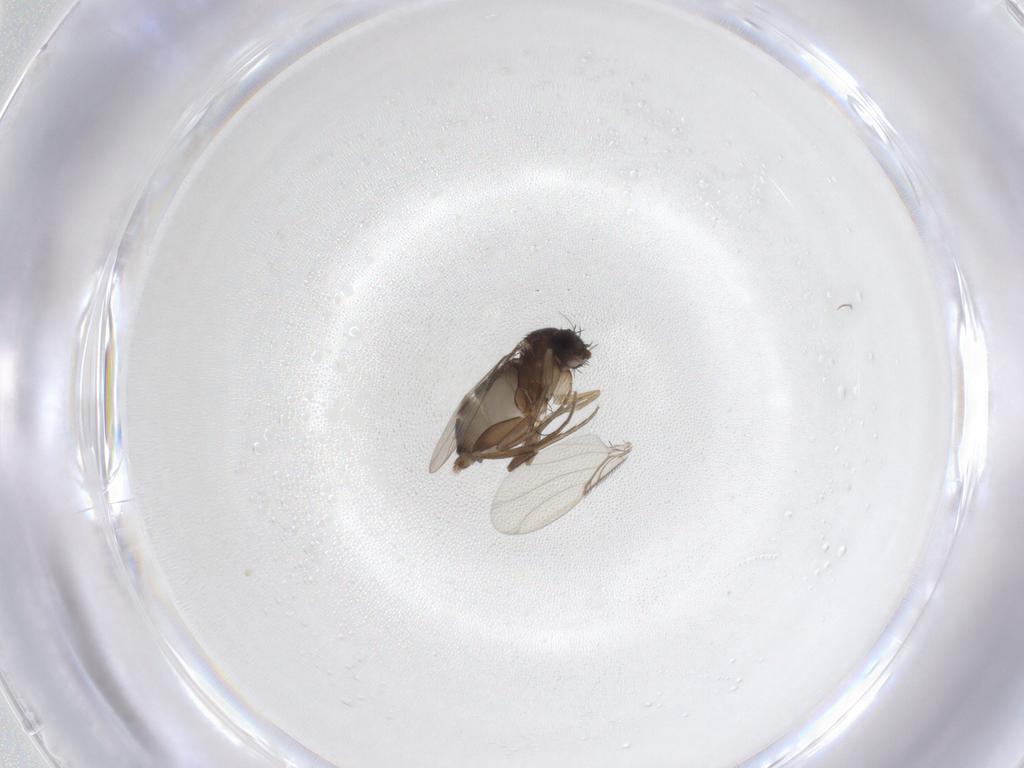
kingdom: Animalia
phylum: Arthropoda
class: Insecta
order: Diptera
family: Phoridae
